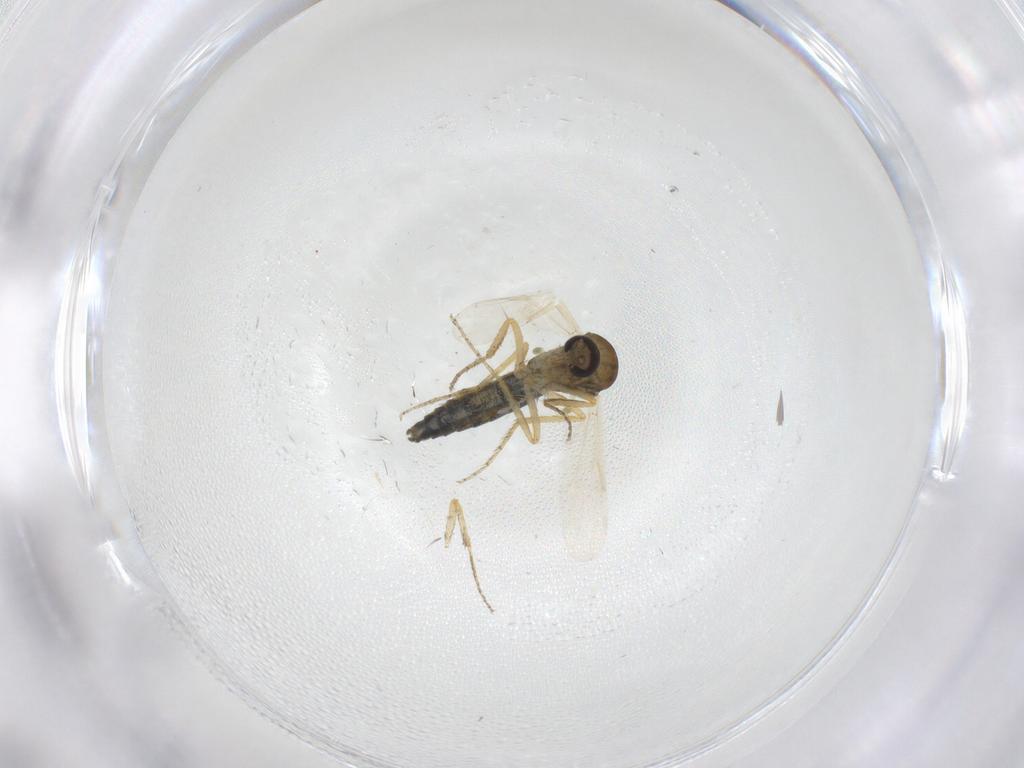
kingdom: Animalia
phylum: Arthropoda
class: Insecta
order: Diptera
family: Ceratopogonidae
